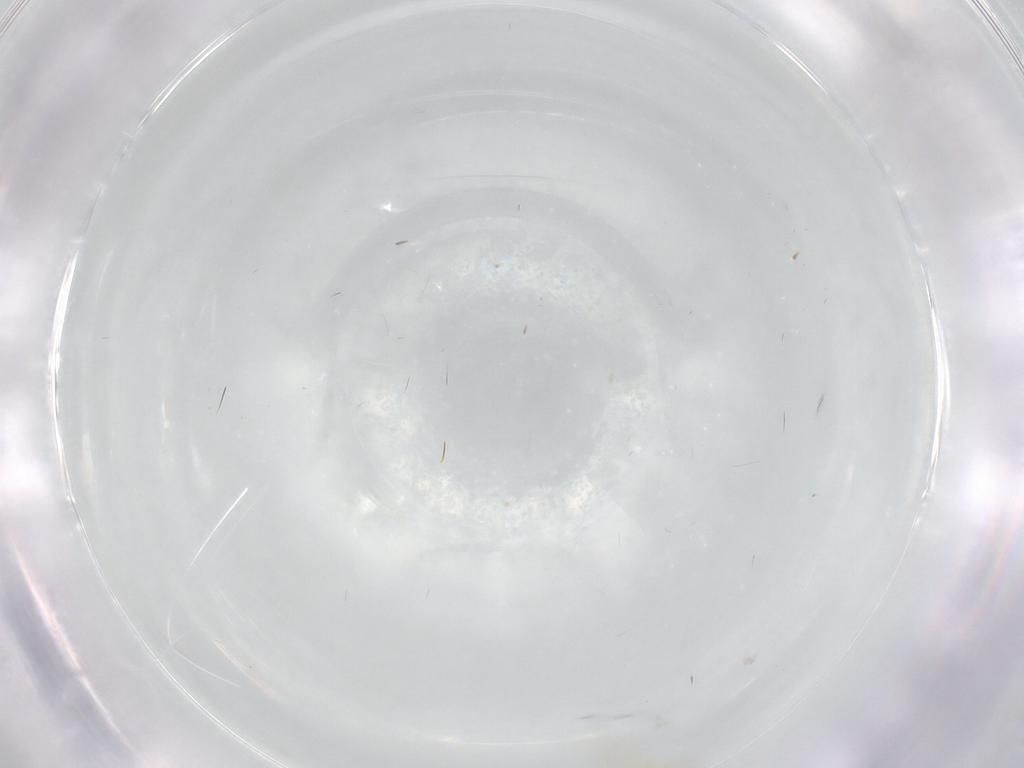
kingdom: Animalia
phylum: Arthropoda
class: Insecta
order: Diptera
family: Cecidomyiidae
